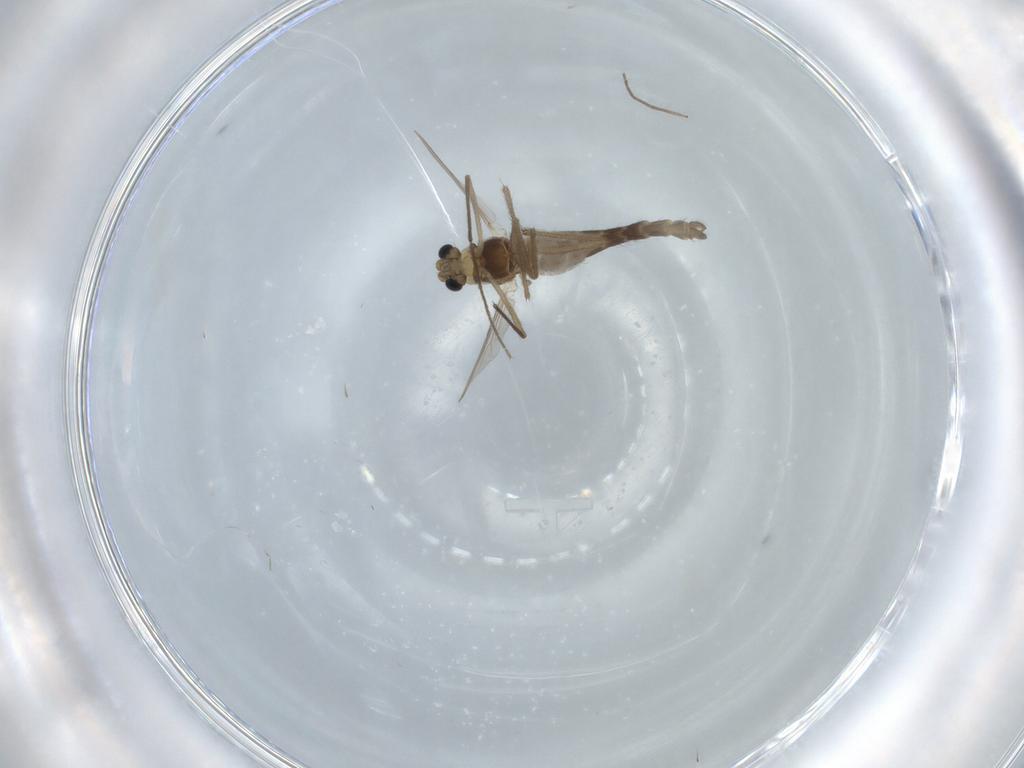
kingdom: Animalia
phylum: Arthropoda
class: Insecta
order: Diptera
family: Chironomidae
